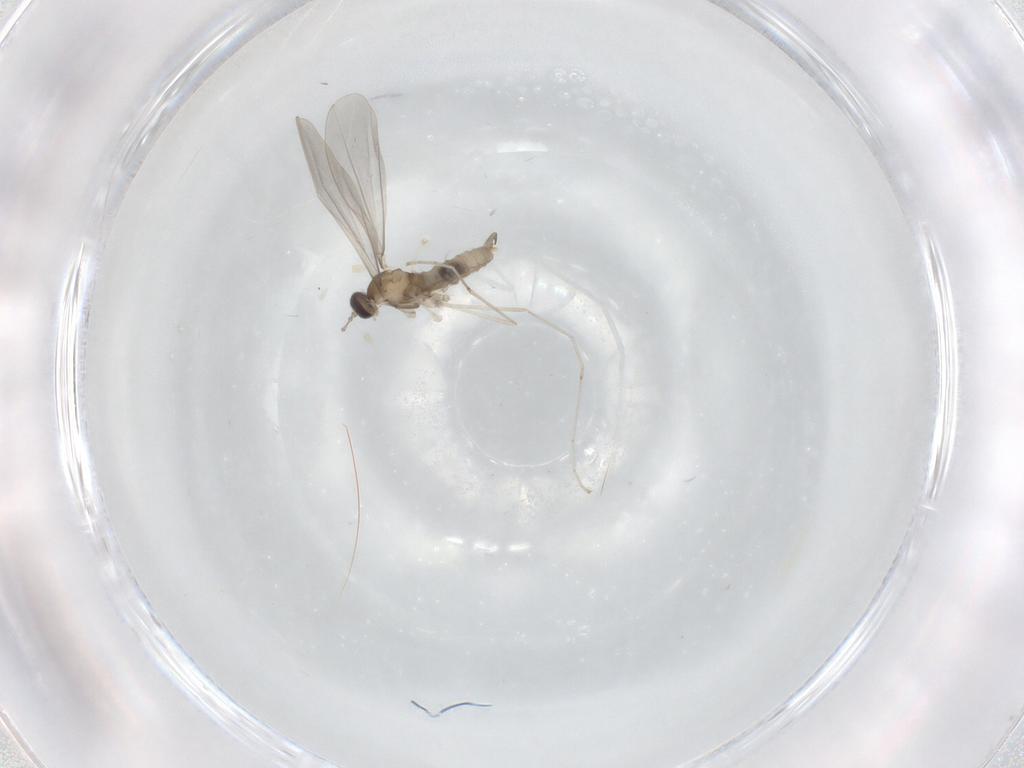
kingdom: Animalia
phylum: Arthropoda
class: Insecta
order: Diptera
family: Cecidomyiidae
